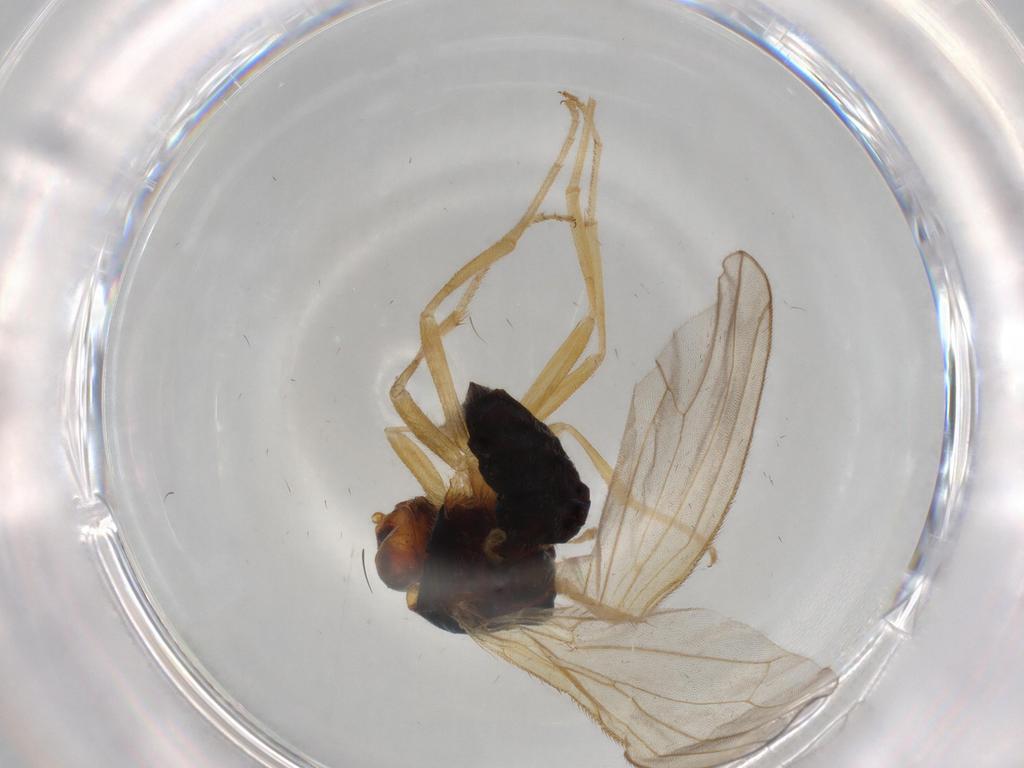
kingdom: Animalia
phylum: Arthropoda
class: Insecta
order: Diptera
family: Psilidae
